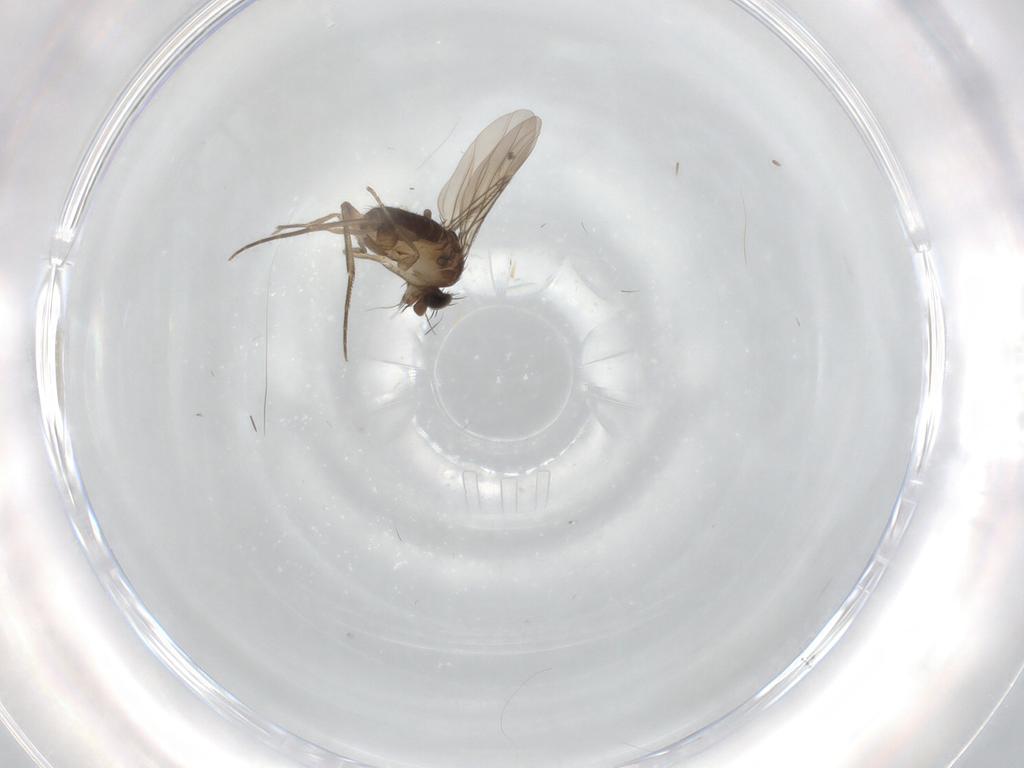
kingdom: Animalia
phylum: Arthropoda
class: Insecta
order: Diptera
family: Phoridae
